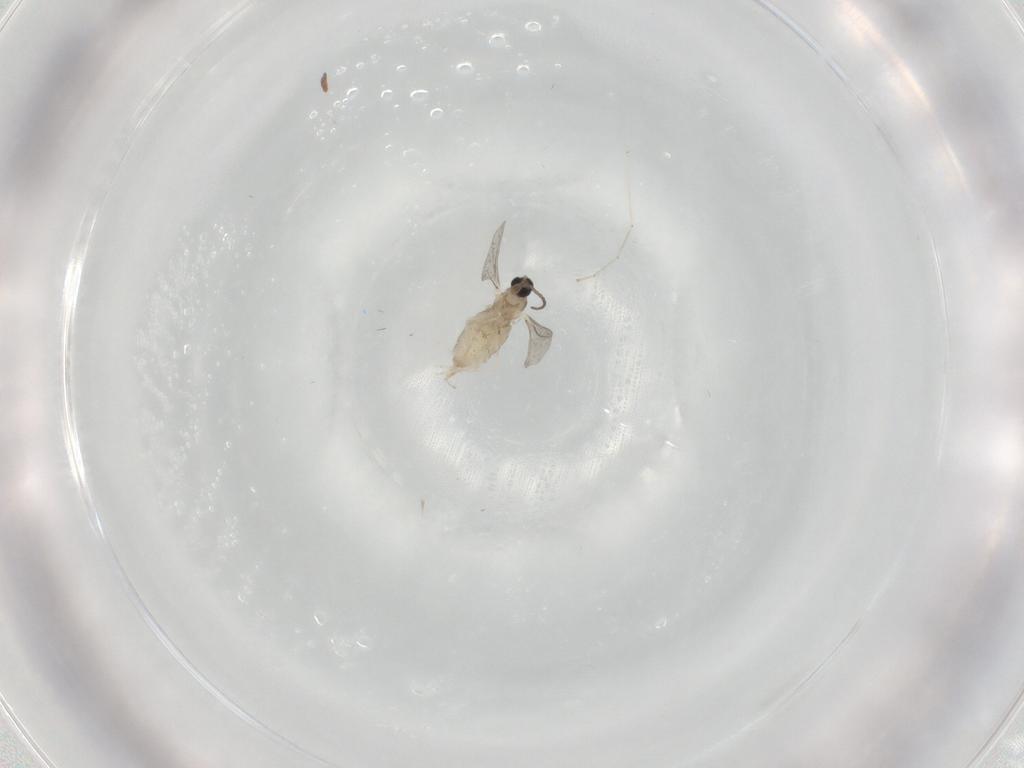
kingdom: Animalia
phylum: Arthropoda
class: Insecta
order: Diptera
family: Cecidomyiidae
